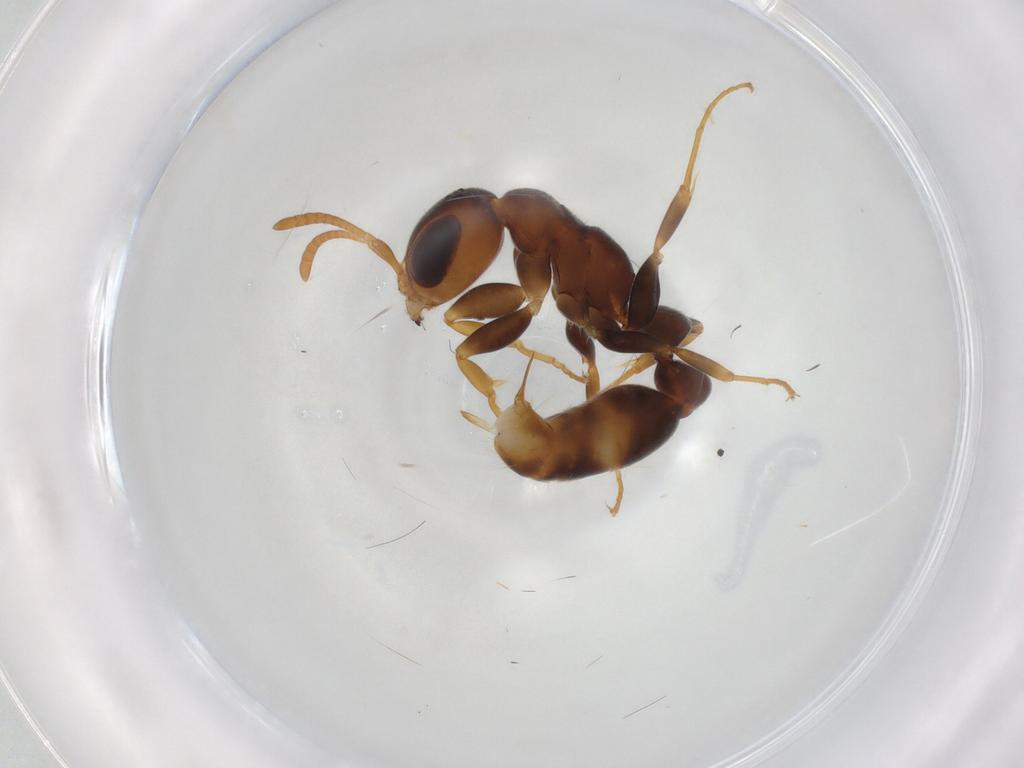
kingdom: Animalia
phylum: Arthropoda
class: Insecta
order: Hymenoptera
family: Formicidae
